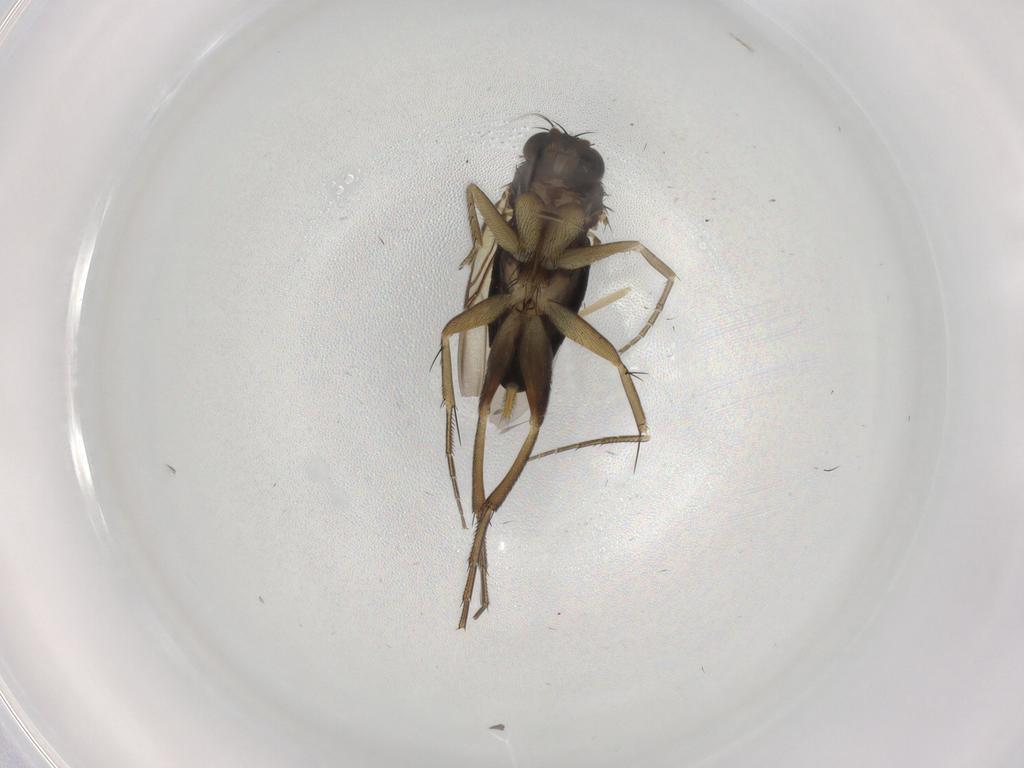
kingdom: Animalia
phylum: Arthropoda
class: Insecta
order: Diptera
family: Phoridae
